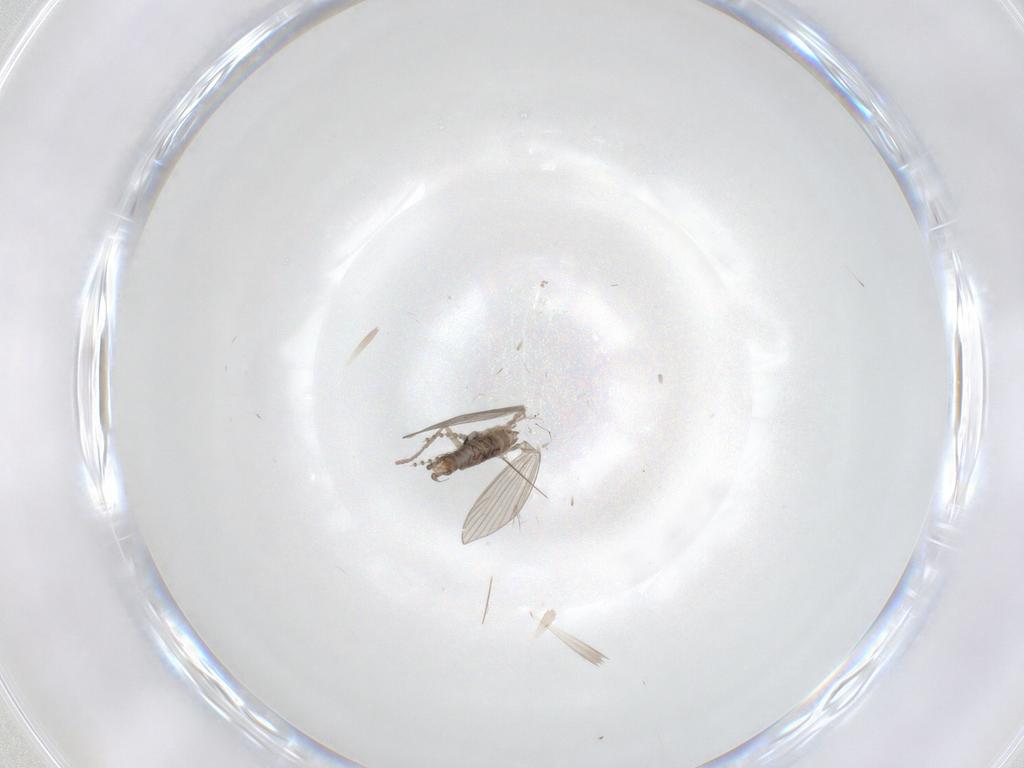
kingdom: Animalia
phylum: Arthropoda
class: Insecta
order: Diptera
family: Psychodidae
